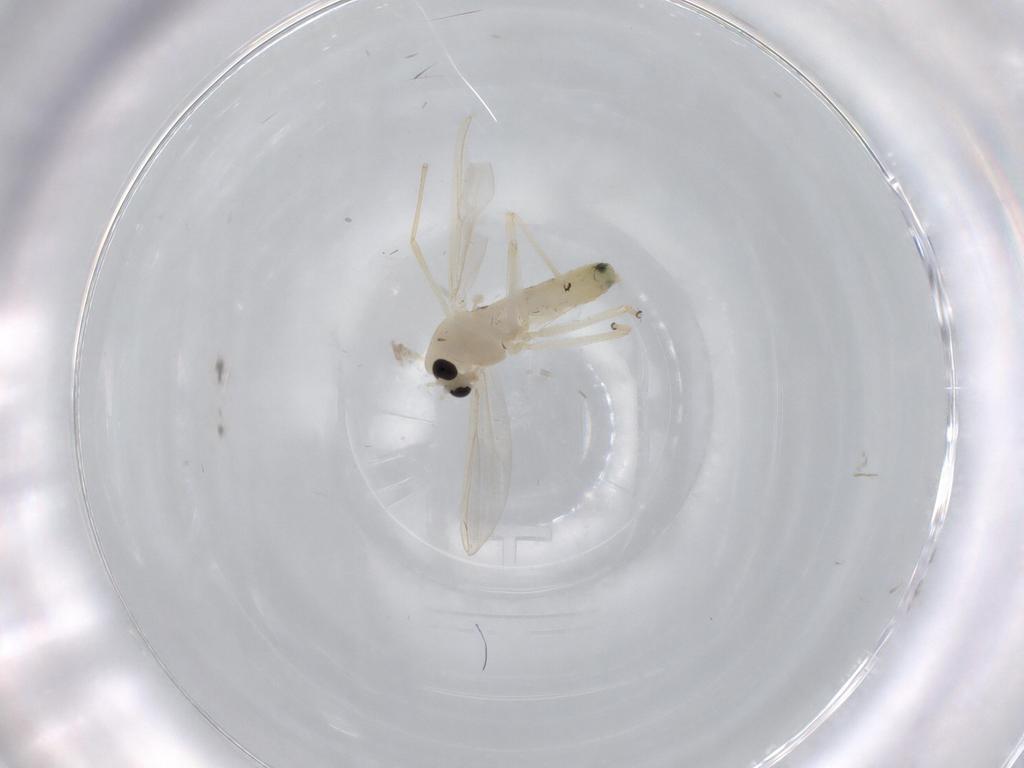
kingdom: Animalia
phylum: Arthropoda
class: Insecta
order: Diptera
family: Chironomidae
